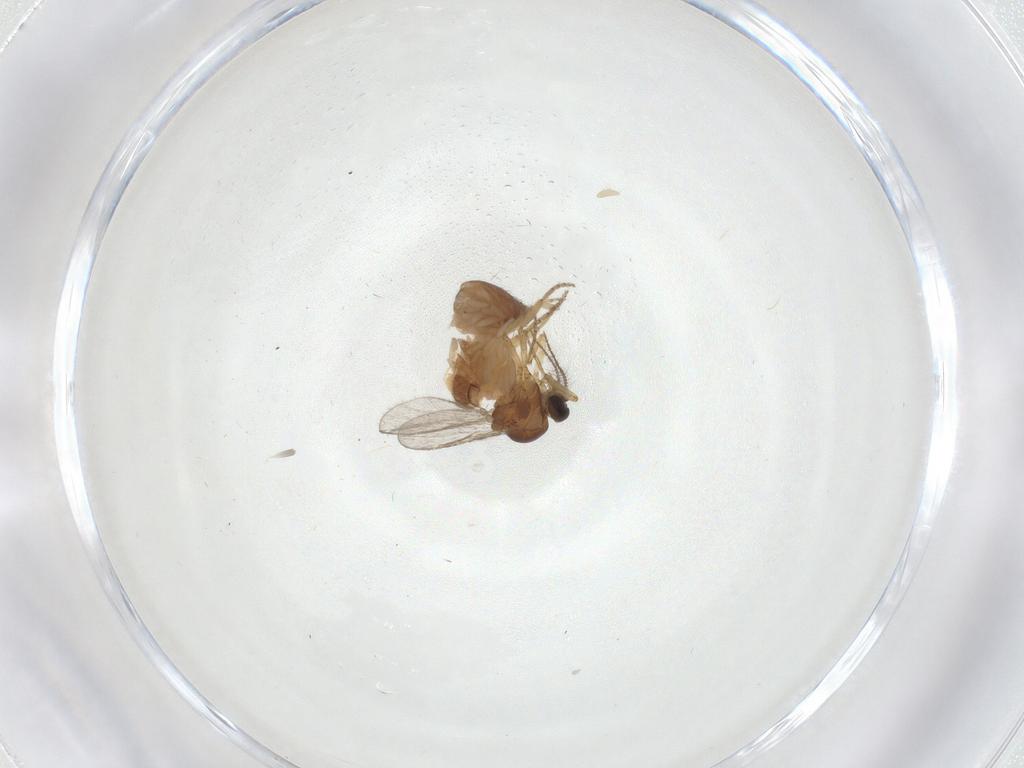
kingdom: Animalia
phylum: Arthropoda
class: Insecta
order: Diptera
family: Ceratopogonidae
